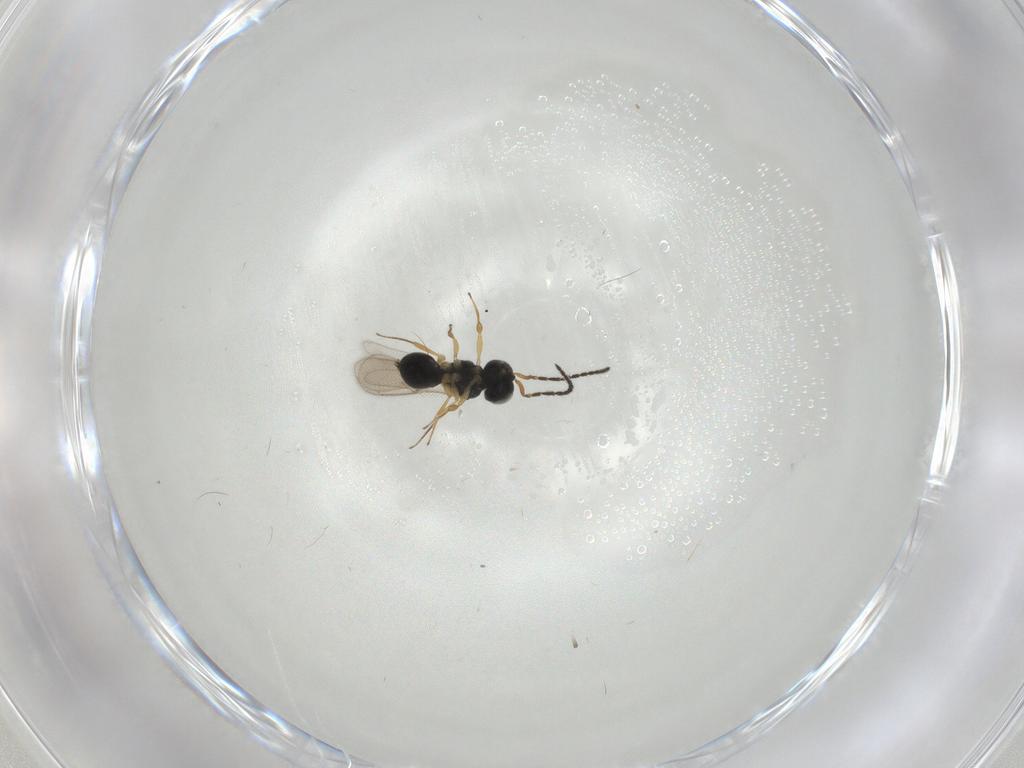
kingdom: Animalia
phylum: Arthropoda
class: Insecta
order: Hymenoptera
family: Scelionidae
